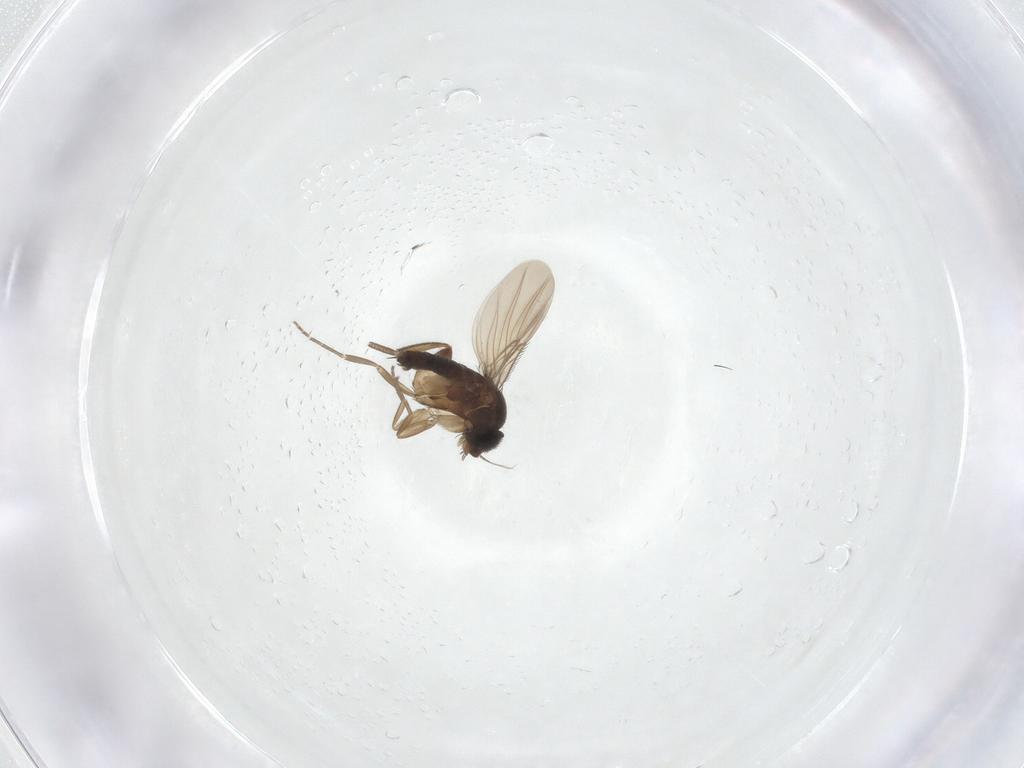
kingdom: Animalia
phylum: Arthropoda
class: Insecta
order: Diptera
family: Phoridae
